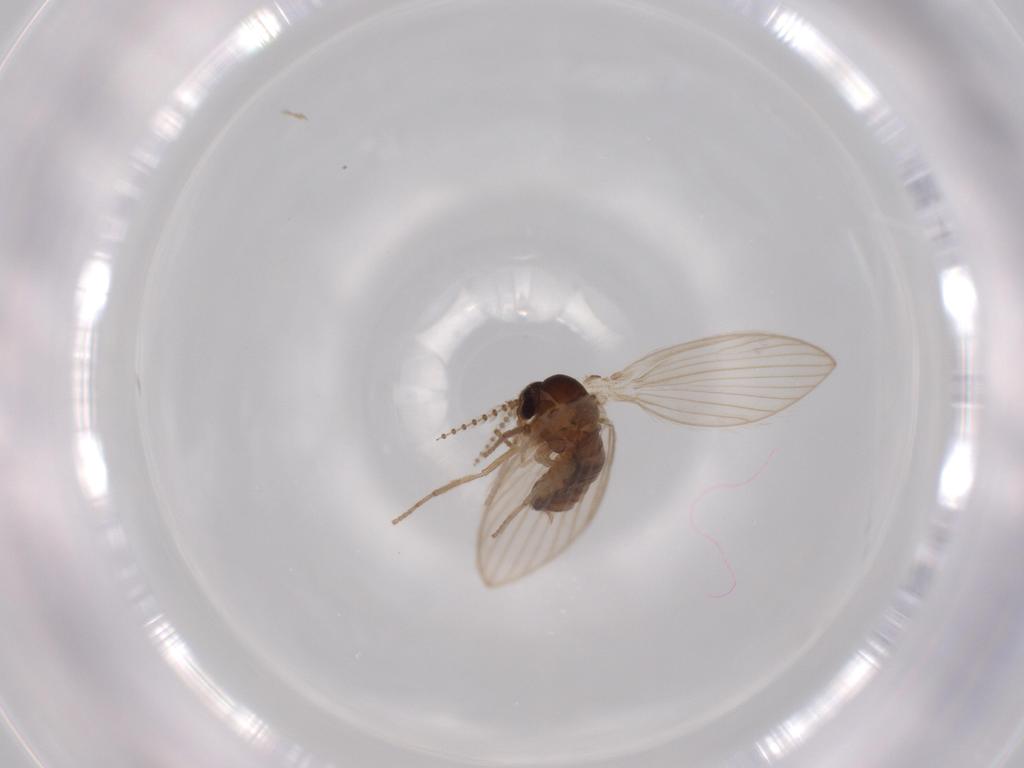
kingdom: Animalia
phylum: Arthropoda
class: Insecta
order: Diptera
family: Psychodidae
